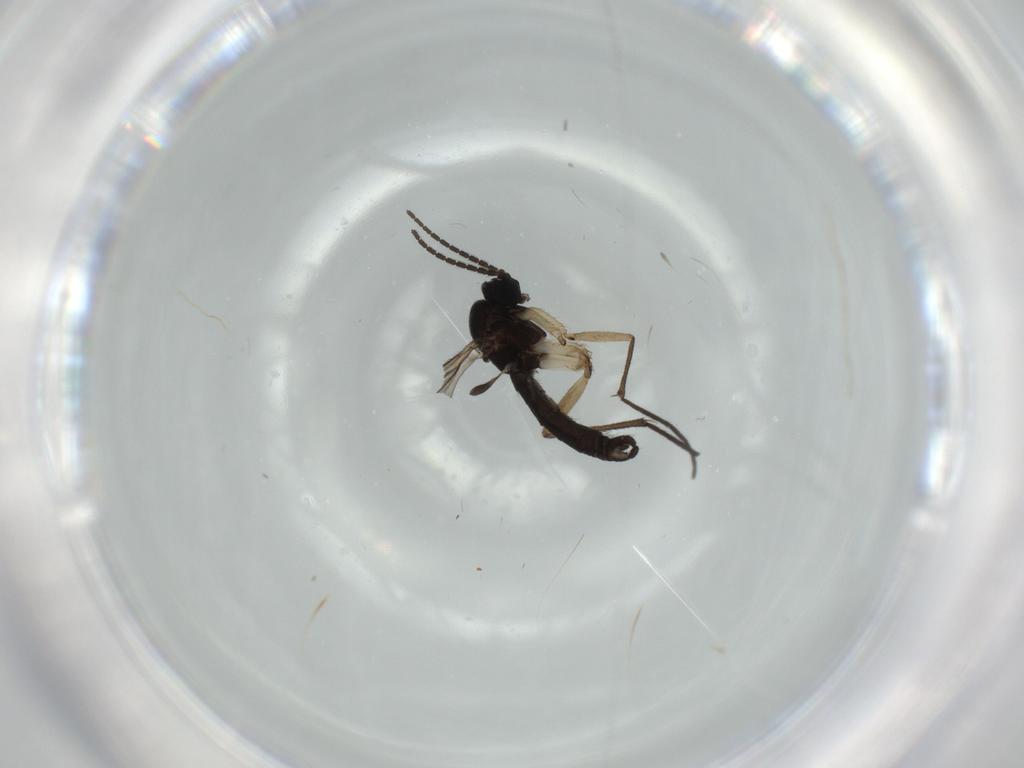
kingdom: Animalia
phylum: Arthropoda
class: Insecta
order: Diptera
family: Sciaridae
